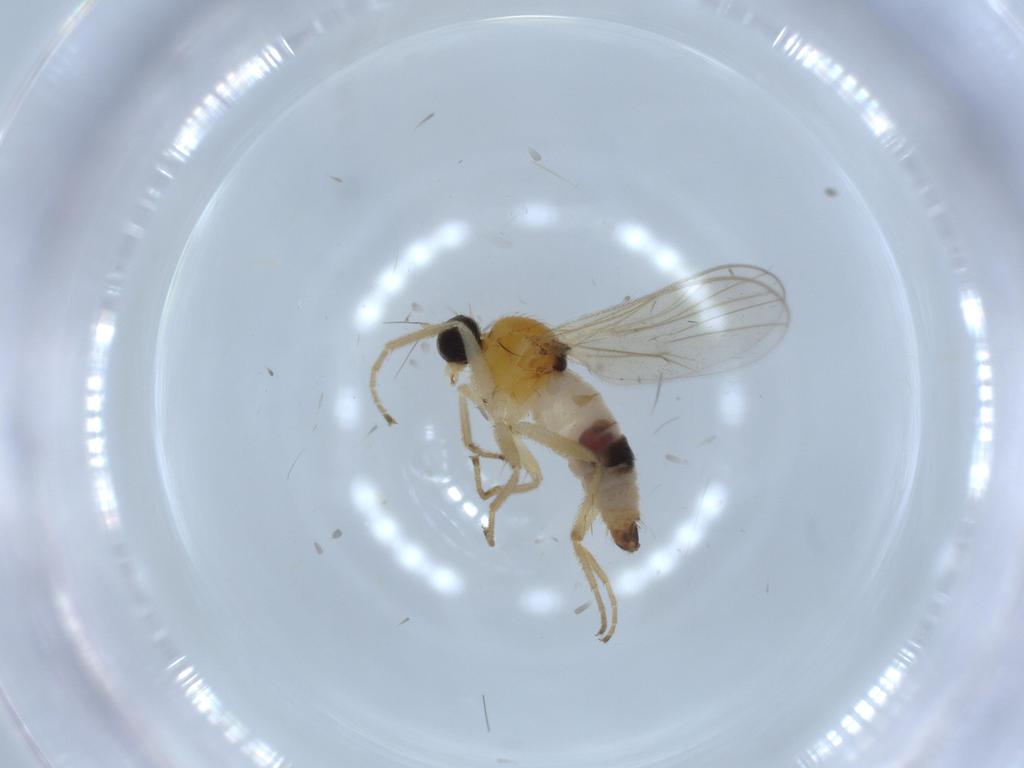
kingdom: Animalia
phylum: Arthropoda
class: Insecta
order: Diptera
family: Hybotidae
